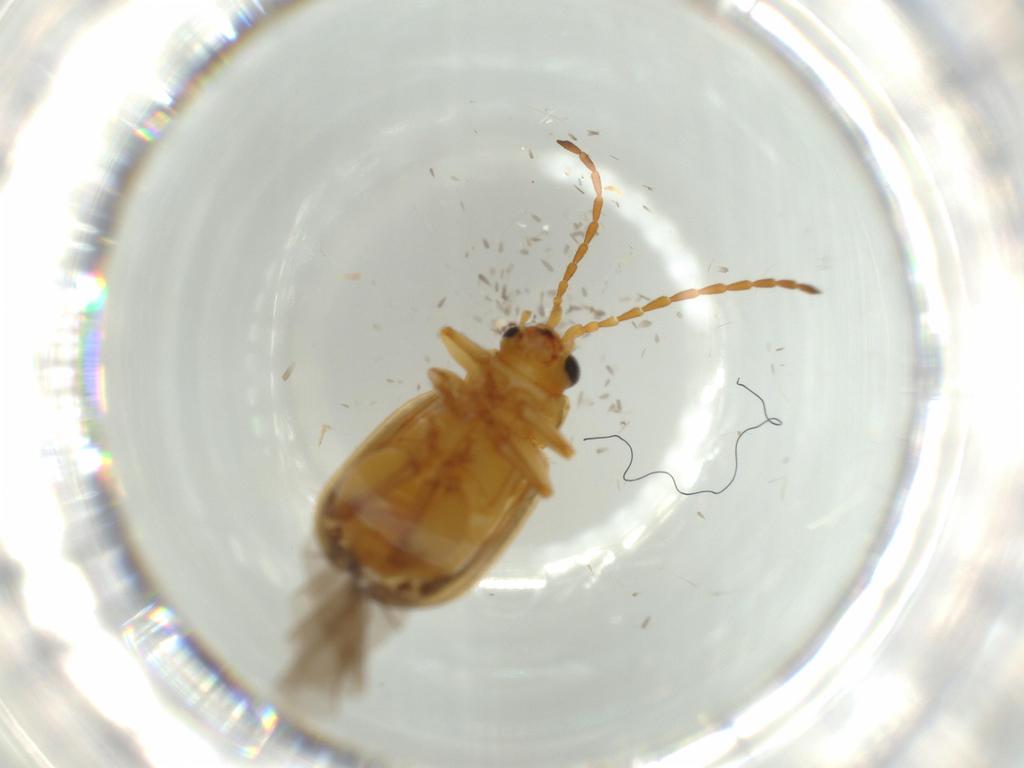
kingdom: Animalia
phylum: Arthropoda
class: Insecta
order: Coleoptera
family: Chrysomelidae
